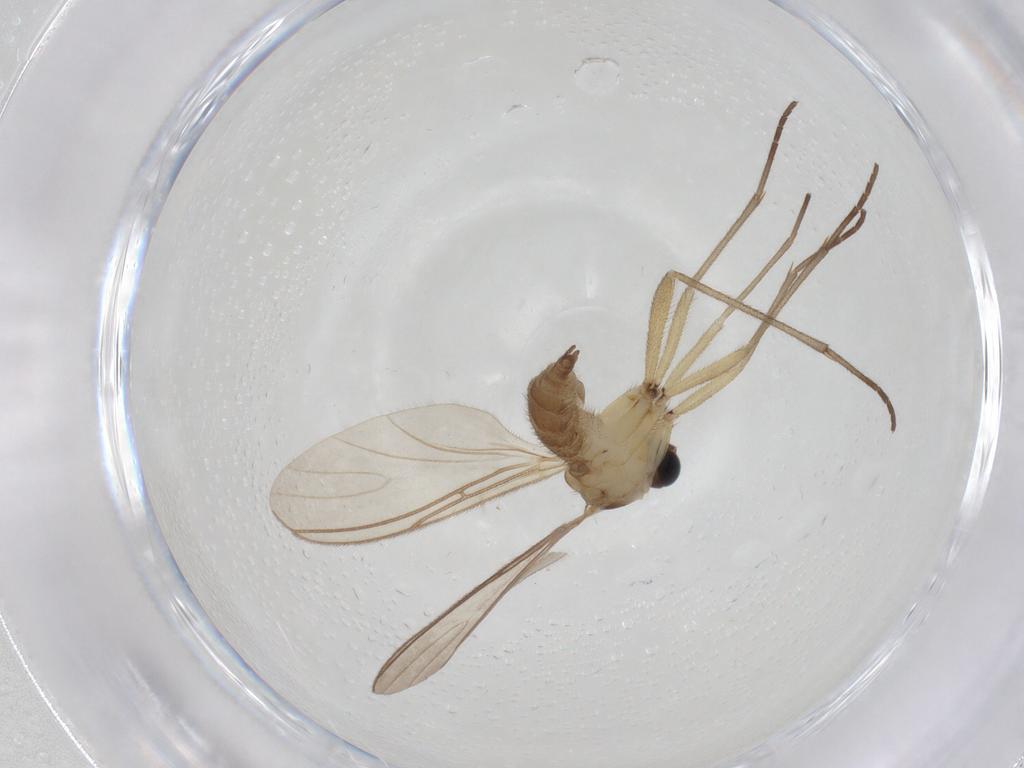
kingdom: Animalia
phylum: Arthropoda
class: Insecta
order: Diptera
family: Sciaridae
